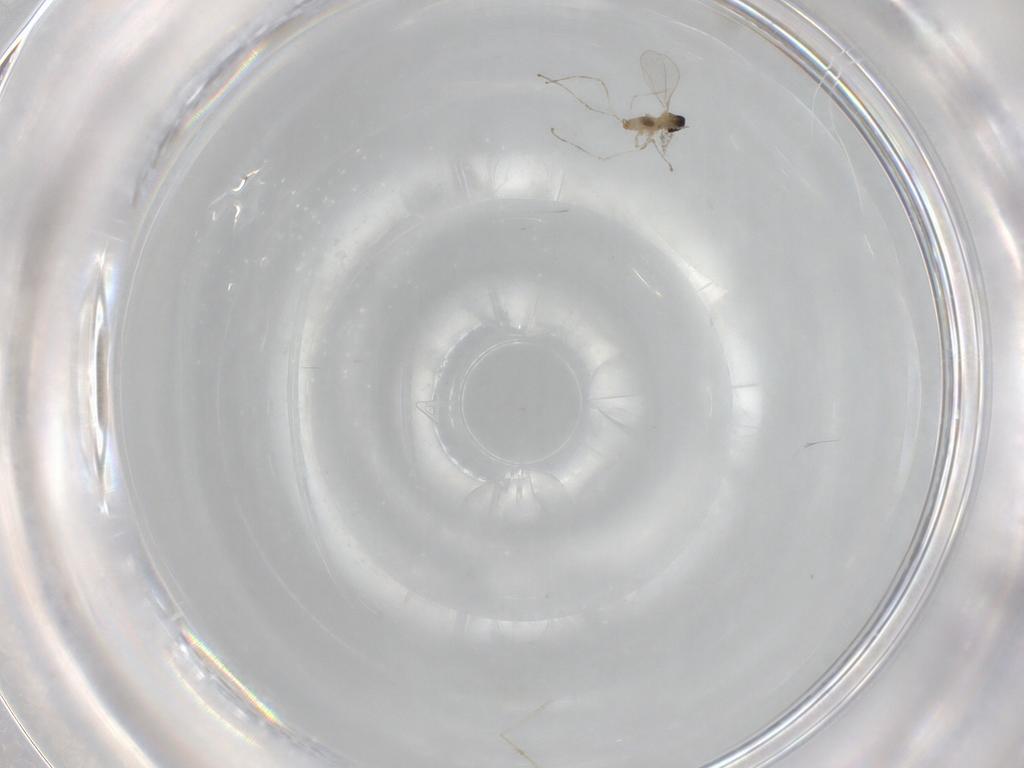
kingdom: Animalia
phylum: Arthropoda
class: Insecta
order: Diptera
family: Cecidomyiidae
